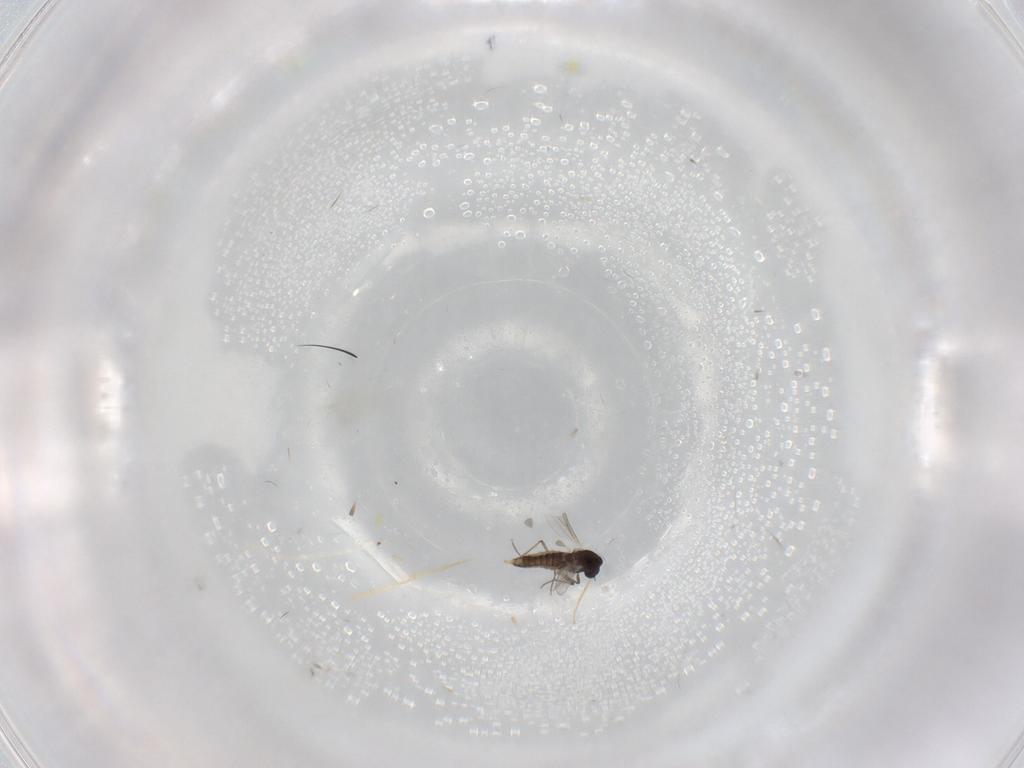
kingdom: Animalia
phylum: Arthropoda
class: Insecta
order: Diptera
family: Chironomidae
